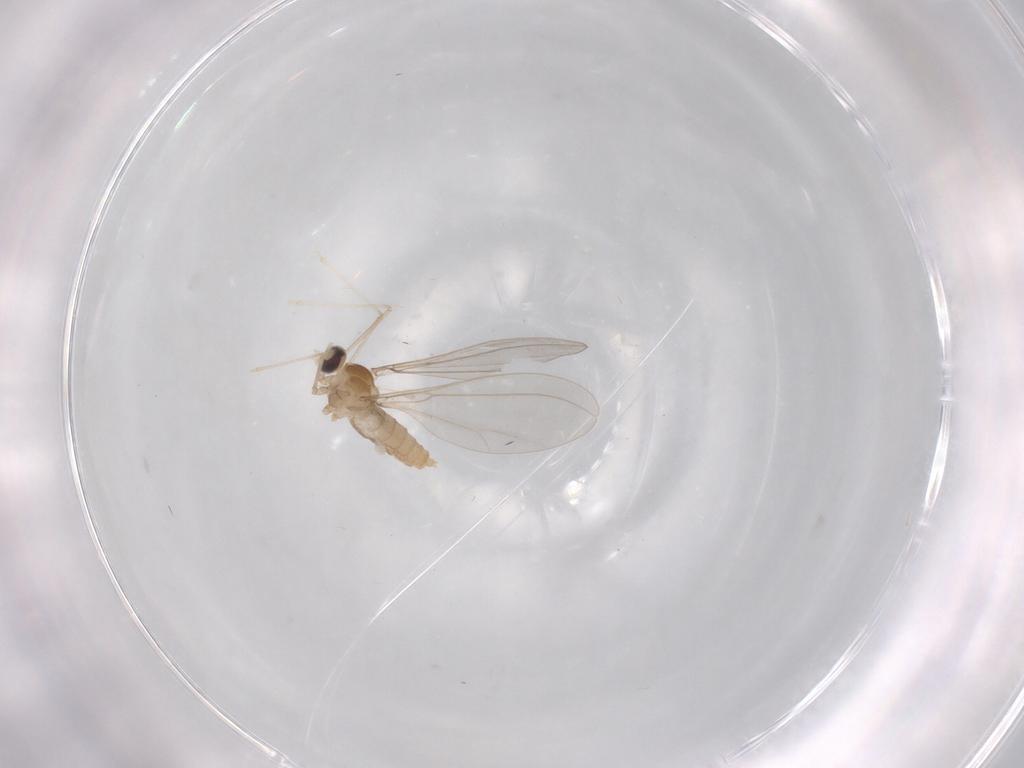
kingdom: Animalia
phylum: Arthropoda
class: Insecta
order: Diptera
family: Cecidomyiidae
